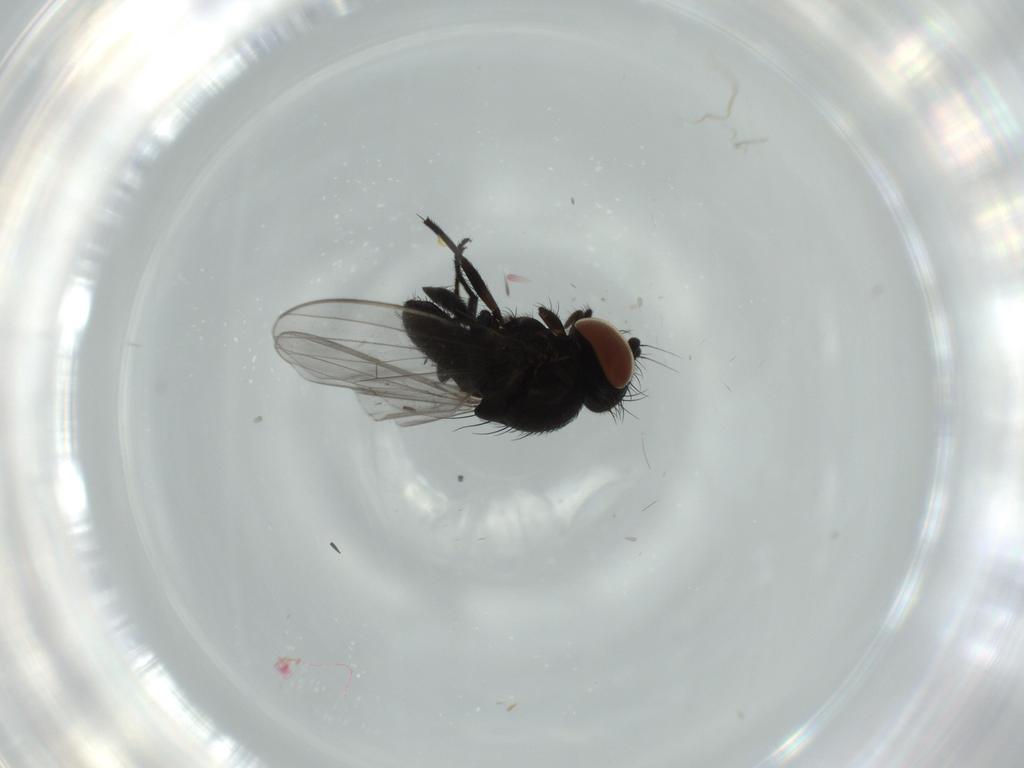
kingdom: Animalia
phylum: Arthropoda
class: Insecta
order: Diptera
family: Milichiidae
